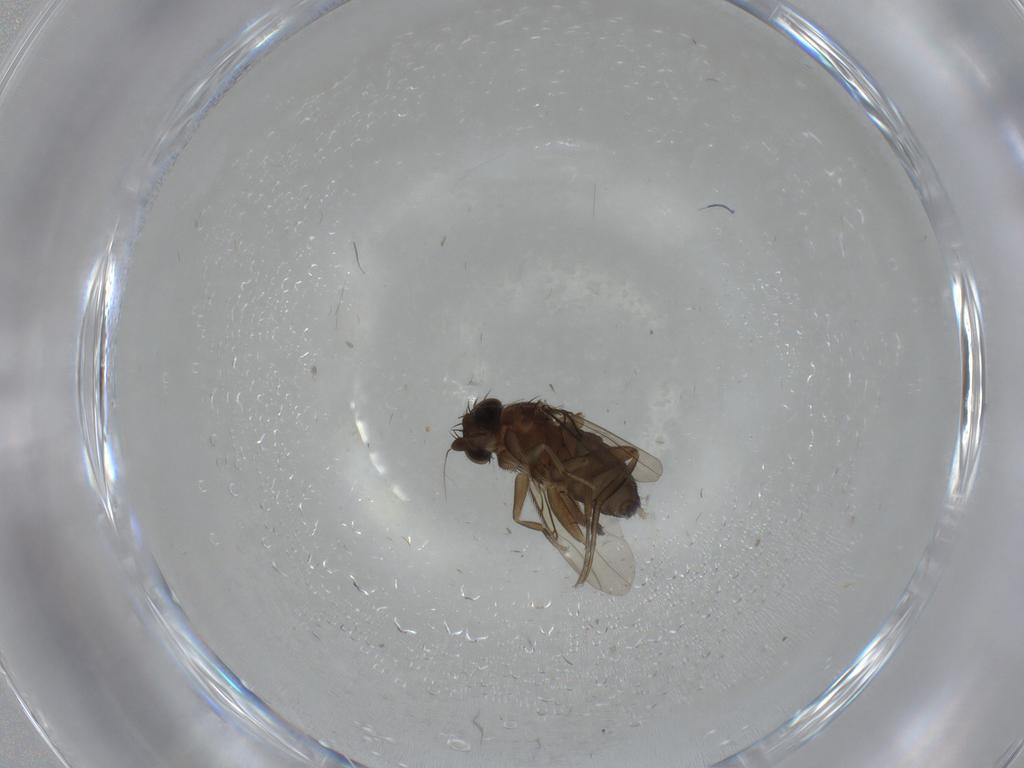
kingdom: Animalia
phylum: Arthropoda
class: Insecta
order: Diptera
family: Phoridae
